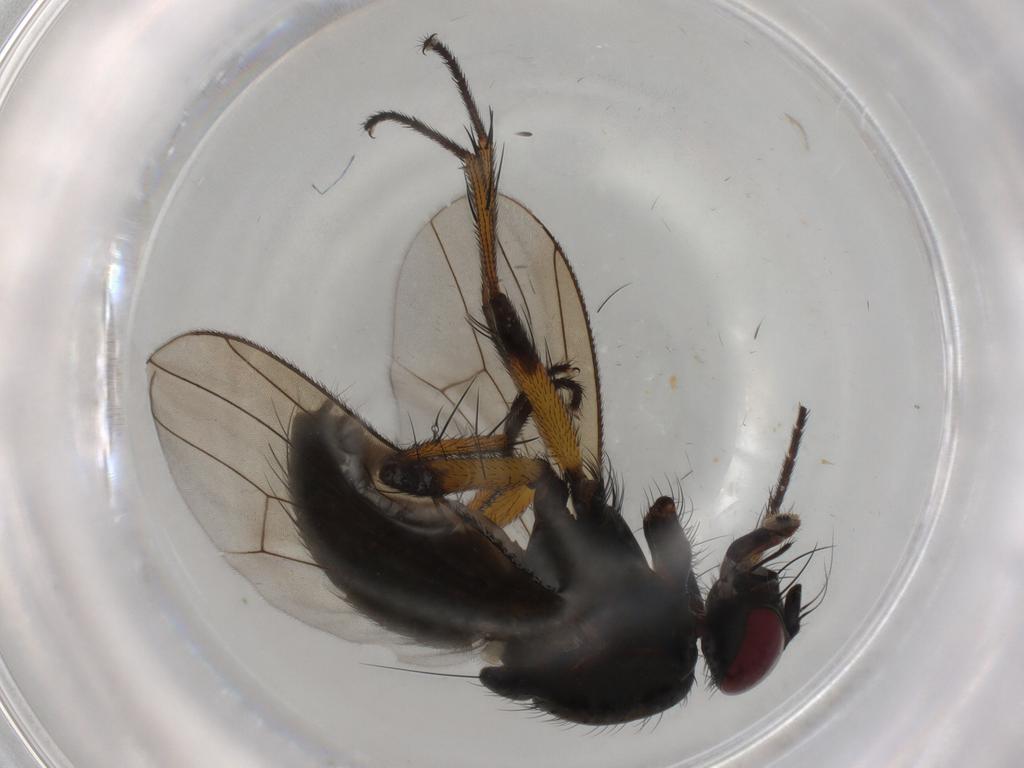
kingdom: Animalia
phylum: Arthropoda
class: Insecta
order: Diptera
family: Muscidae
